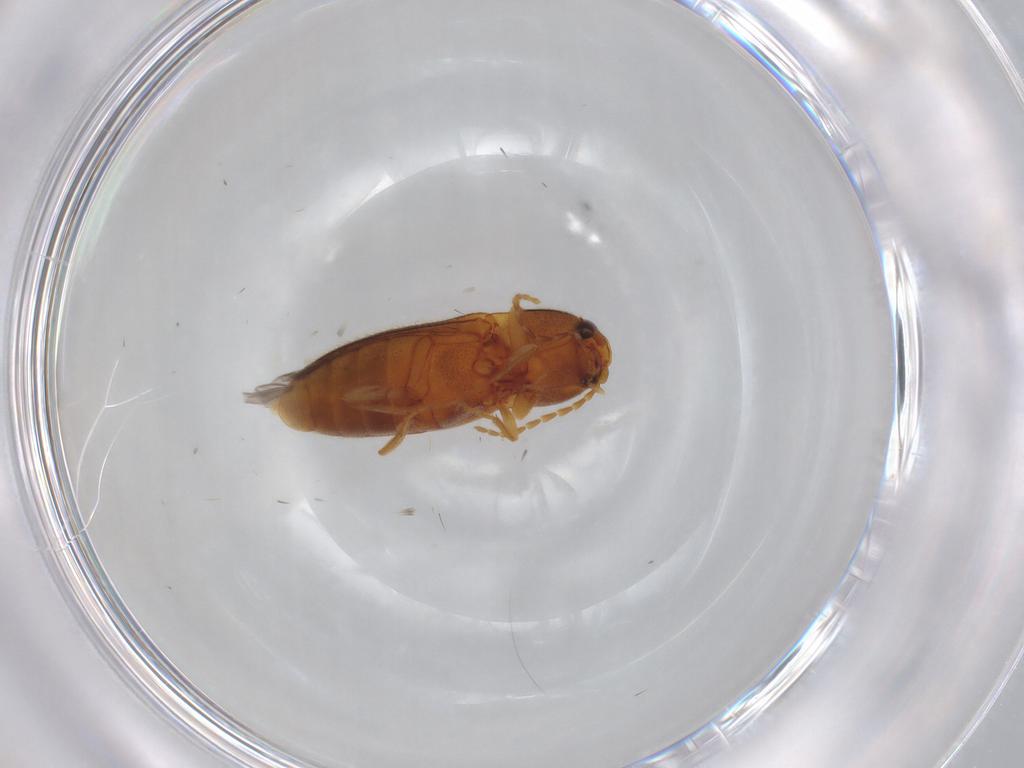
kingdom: Animalia
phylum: Arthropoda
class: Insecta
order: Coleoptera
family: Elateridae
